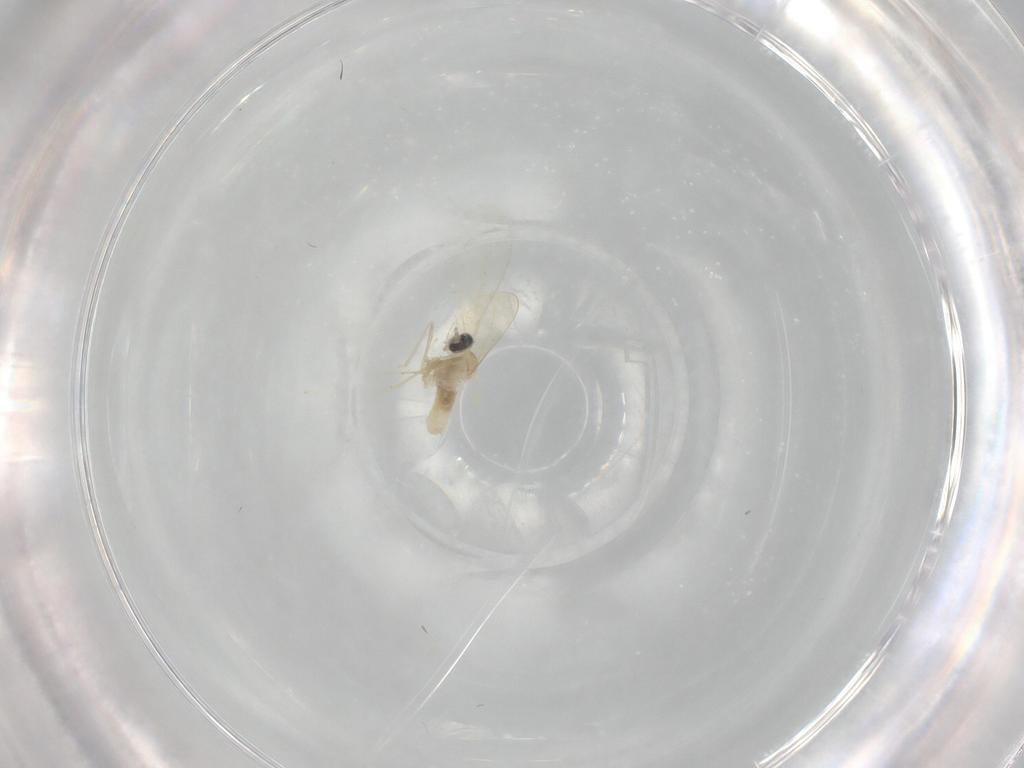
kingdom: Animalia
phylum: Arthropoda
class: Insecta
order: Diptera
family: Cecidomyiidae
